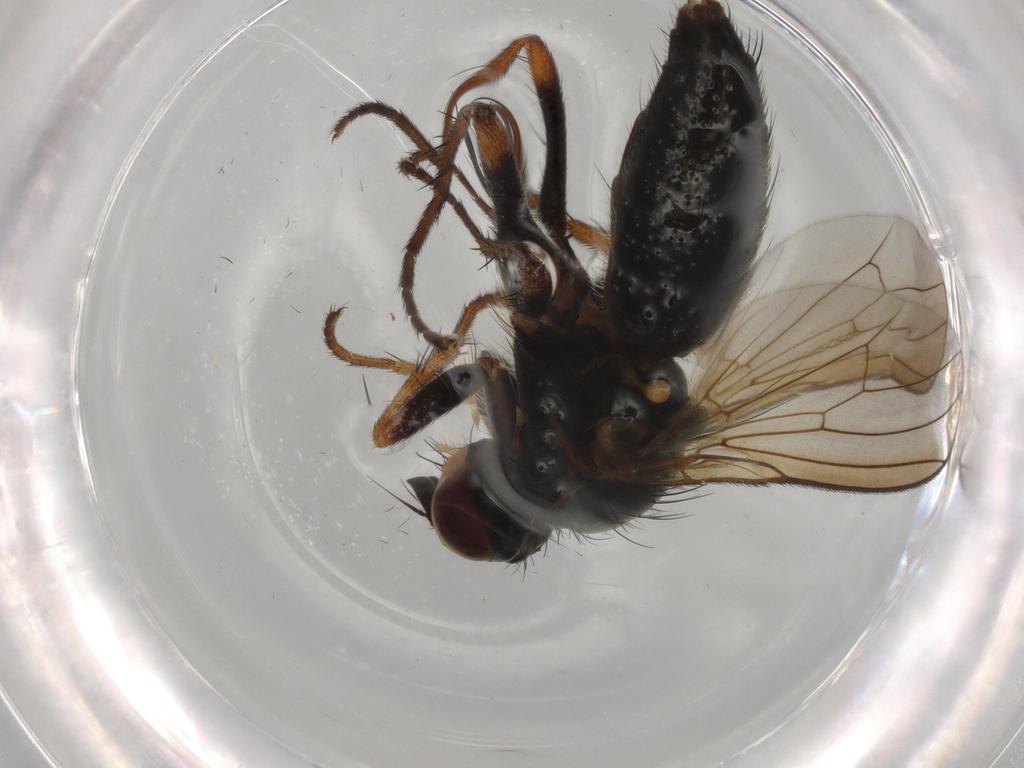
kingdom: Animalia
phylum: Arthropoda
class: Insecta
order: Diptera
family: Scathophagidae
